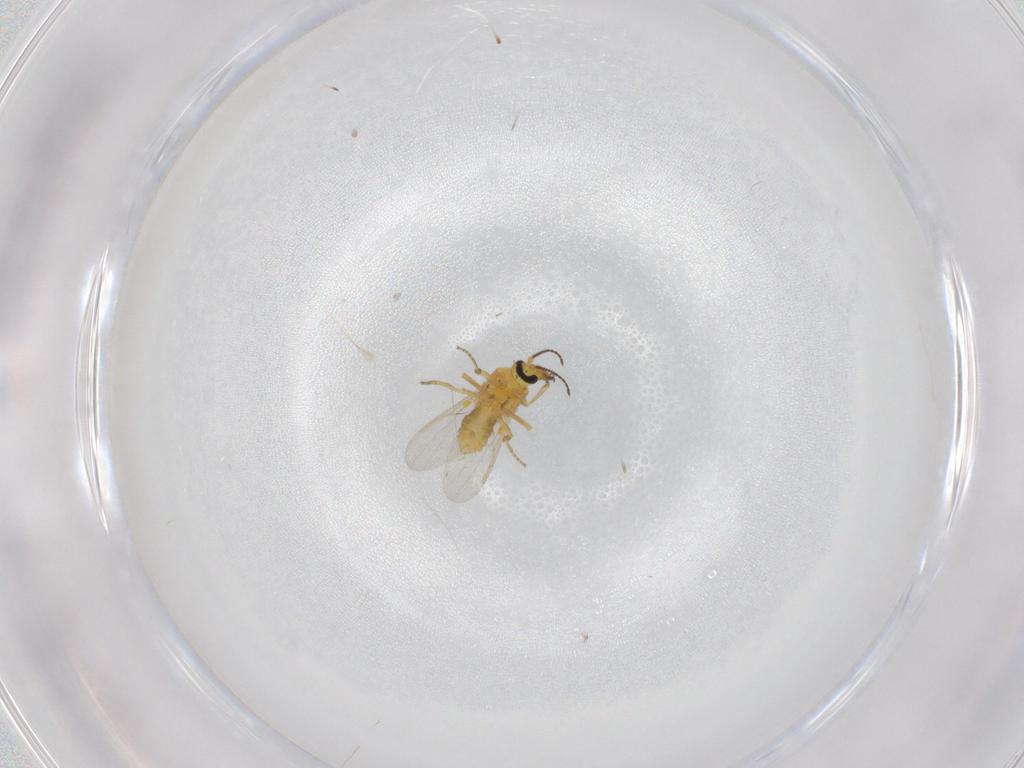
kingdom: Animalia
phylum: Arthropoda
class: Insecta
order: Diptera
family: Ceratopogonidae
